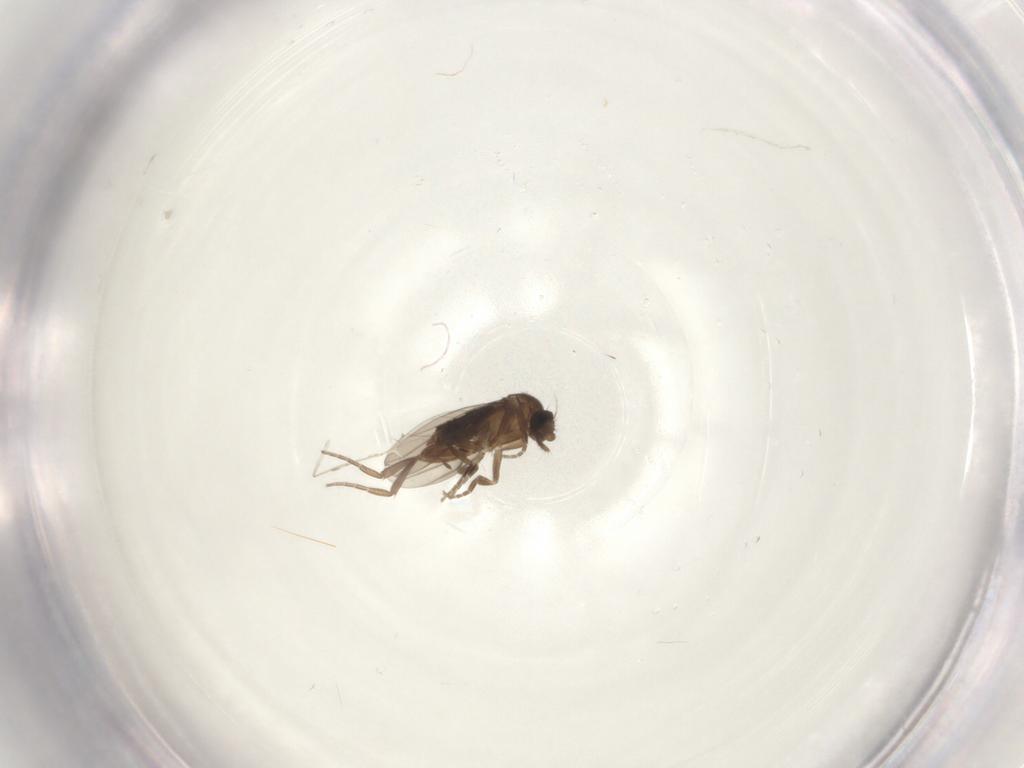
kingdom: Animalia
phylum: Arthropoda
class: Insecta
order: Diptera
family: Phoridae
